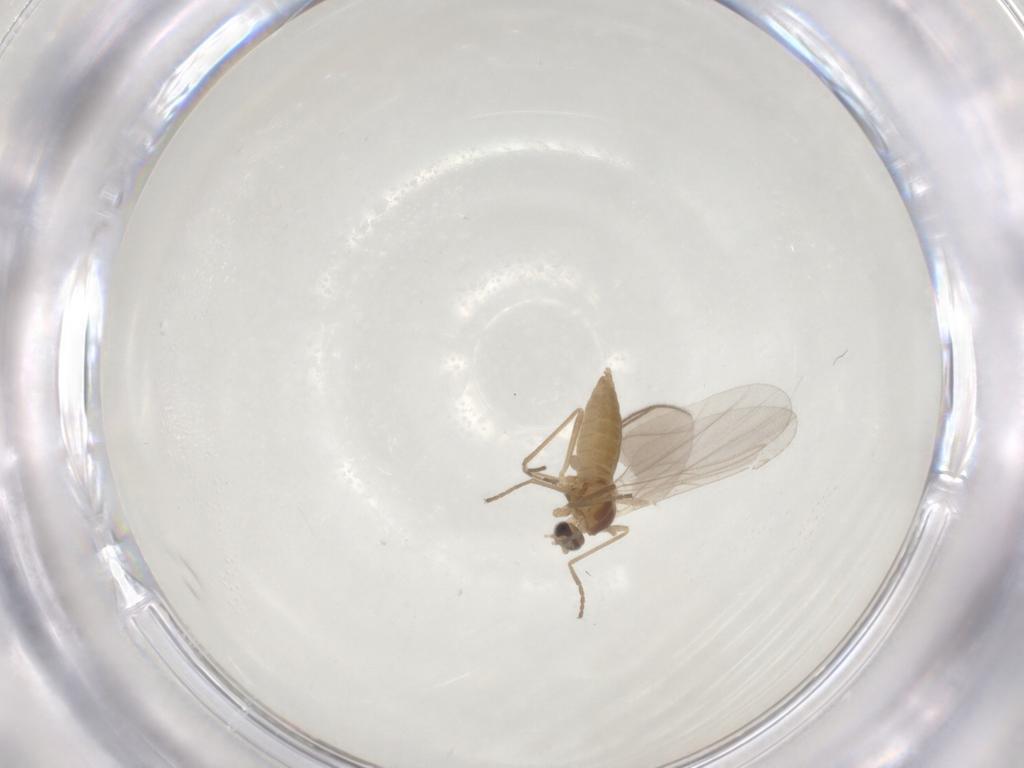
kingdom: Animalia
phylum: Arthropoda
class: Insecta
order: Diptera
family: Cecidomyiidae
